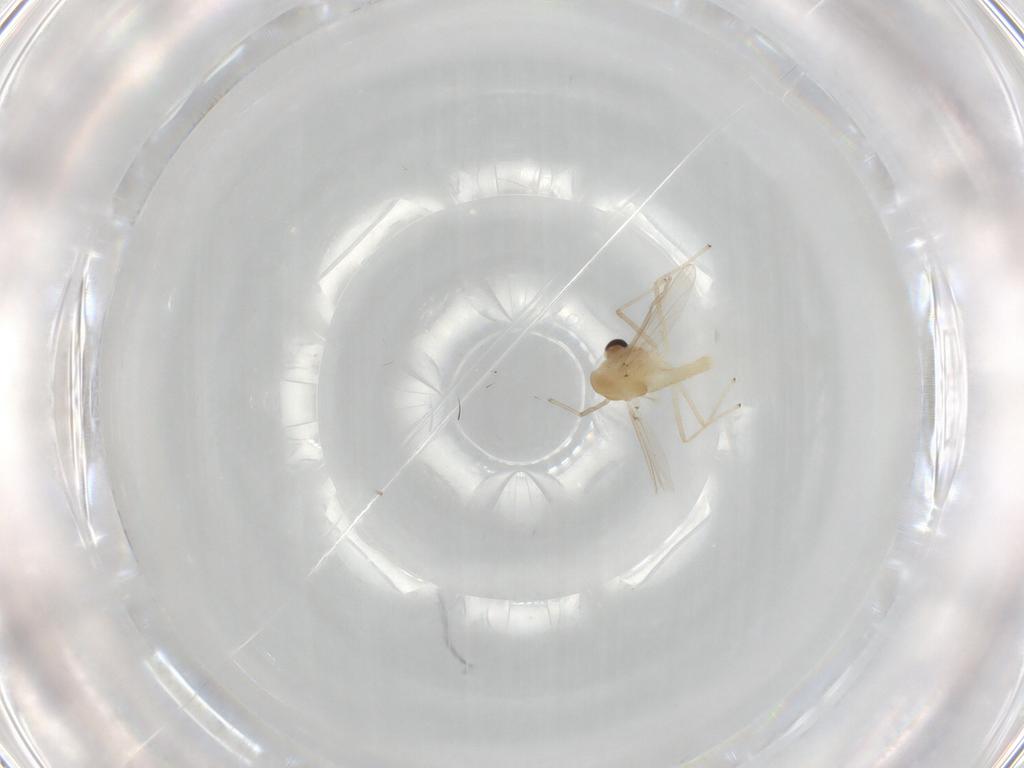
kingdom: Animalia
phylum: Arthropoda
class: Insecta
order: Diptera
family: Chironomidae
